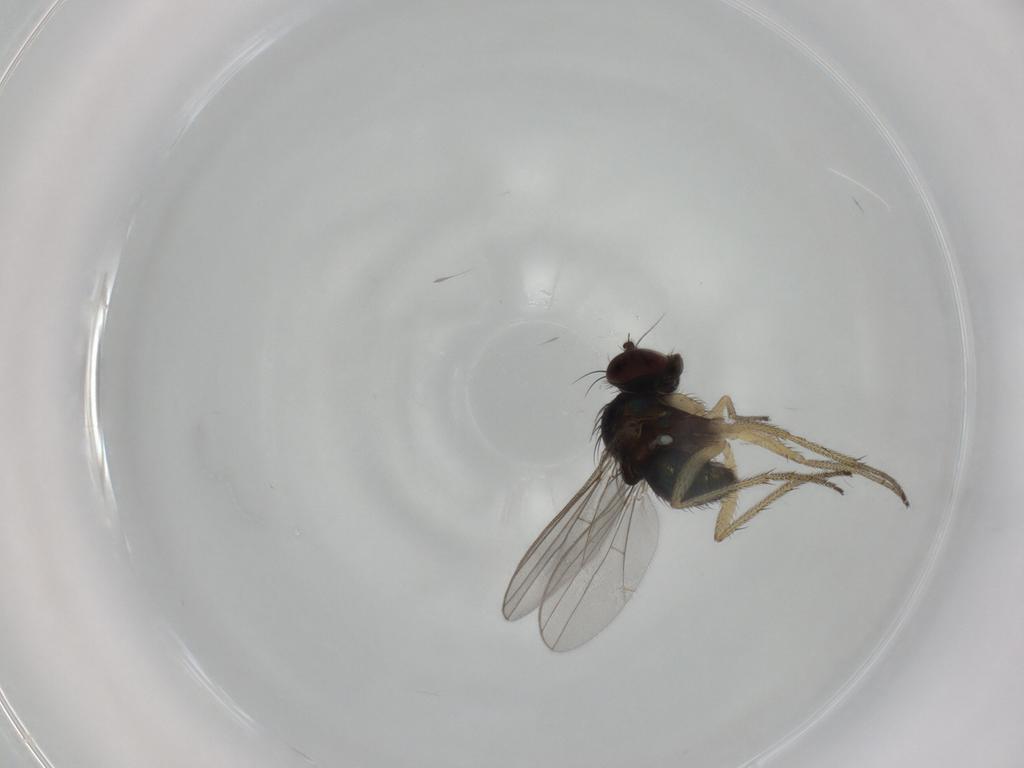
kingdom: Animalia
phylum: Arthropoda
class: Insecta
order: Diptera
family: Dolichopodidae
